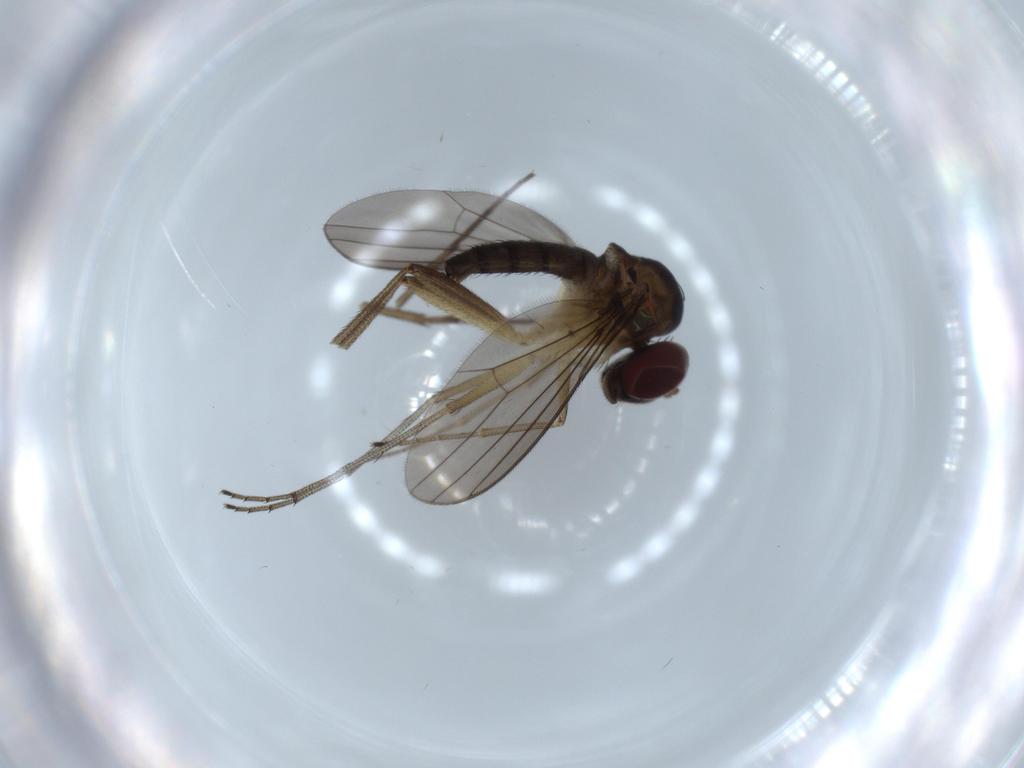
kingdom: Animalia
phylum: Arthropoda
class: Insecta
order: Diptera
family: Dolichopodidae
